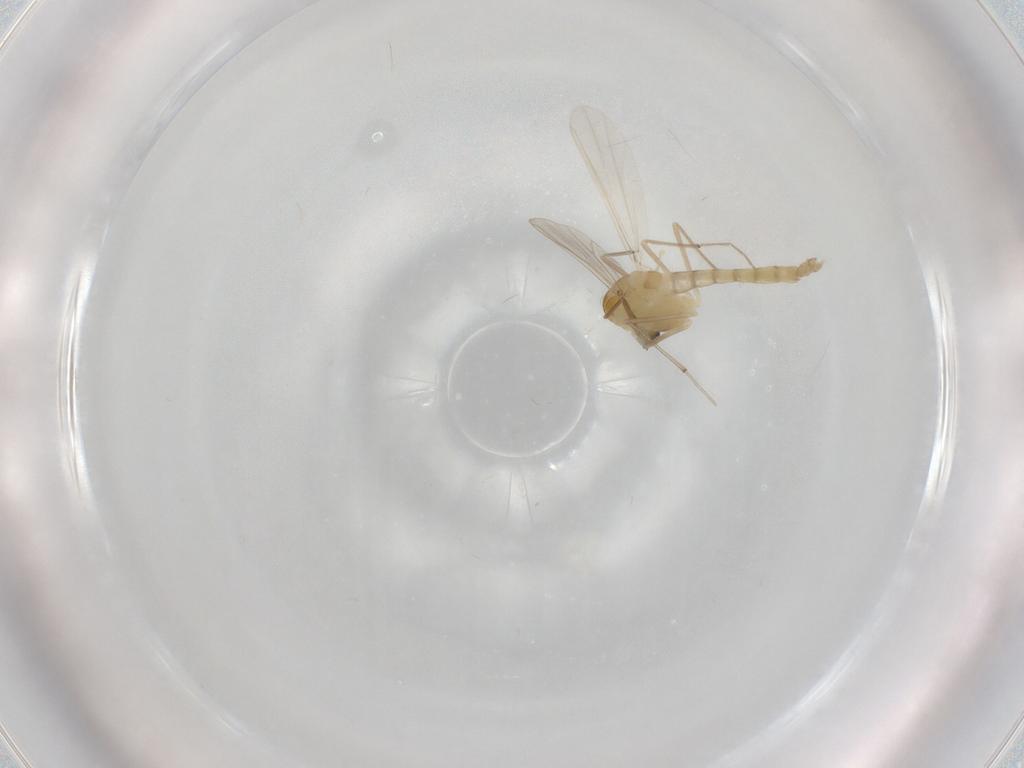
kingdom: Animalia
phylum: Arthropoda
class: Insecta
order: Diptera
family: Chironomidae
